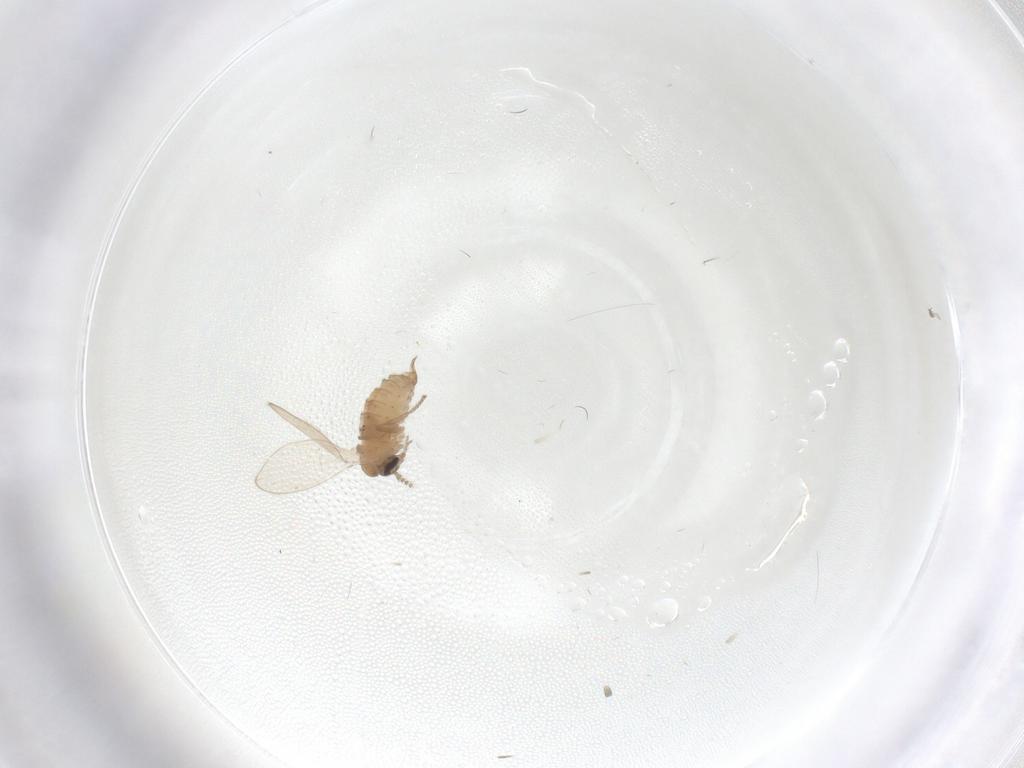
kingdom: Animalia
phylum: Arthropoda
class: Insecta
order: Diptera
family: Psychodidae
